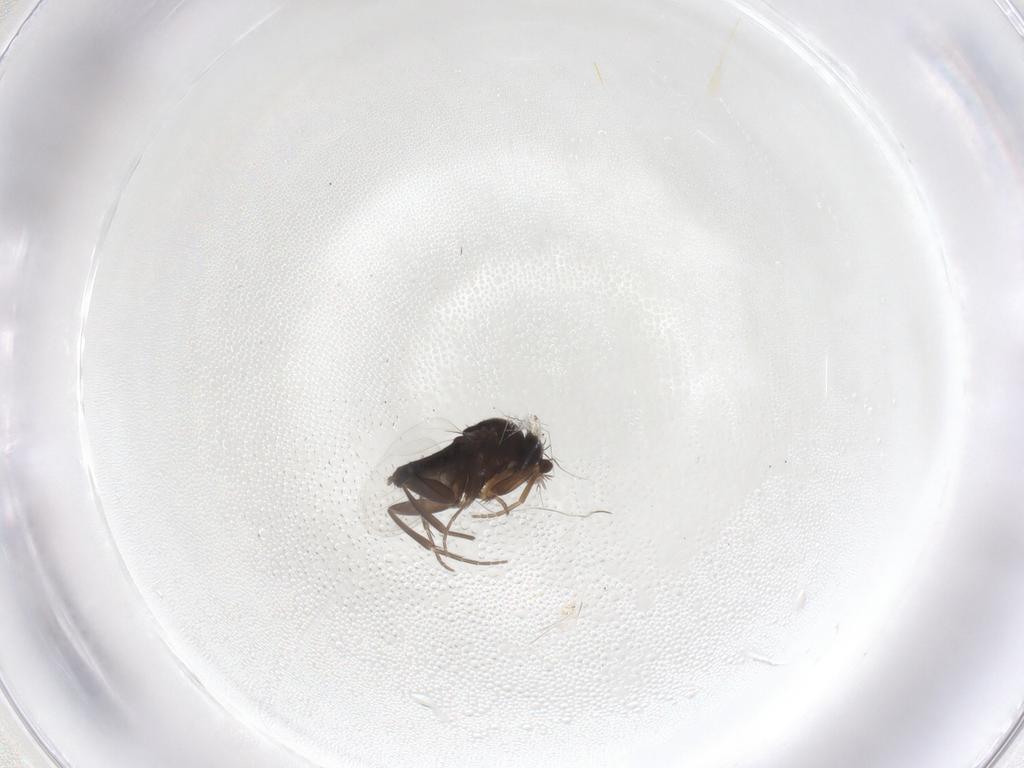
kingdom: Animalia
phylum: Arthropoda
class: Insecta
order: Diptera
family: Phoridae
